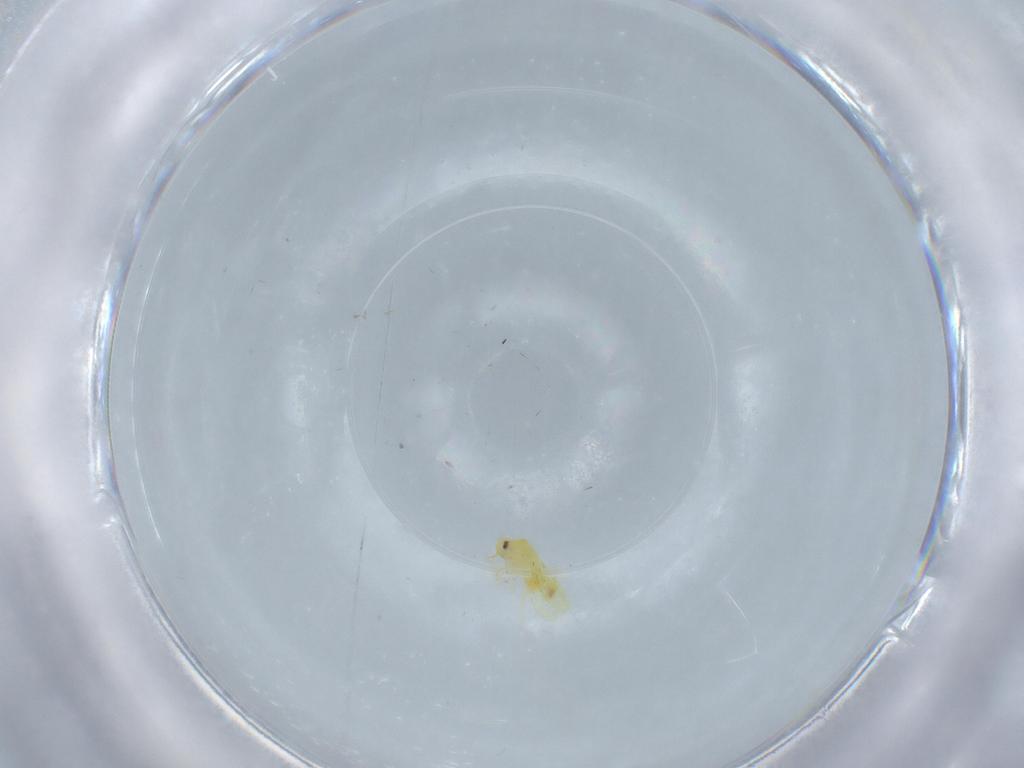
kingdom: Animalia
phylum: Arthropoda
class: Insecta
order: Hemiptera
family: Aleyrodidae
